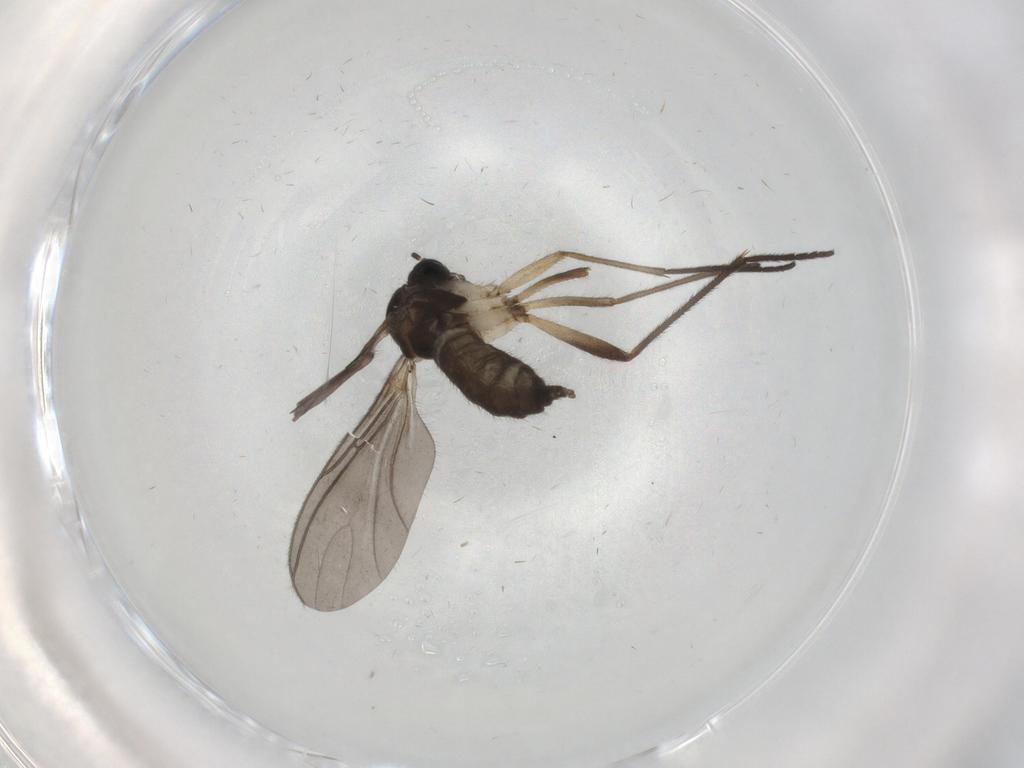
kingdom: Animalia
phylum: Arthropoda
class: Insecta
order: Diptera
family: Sciaridae
